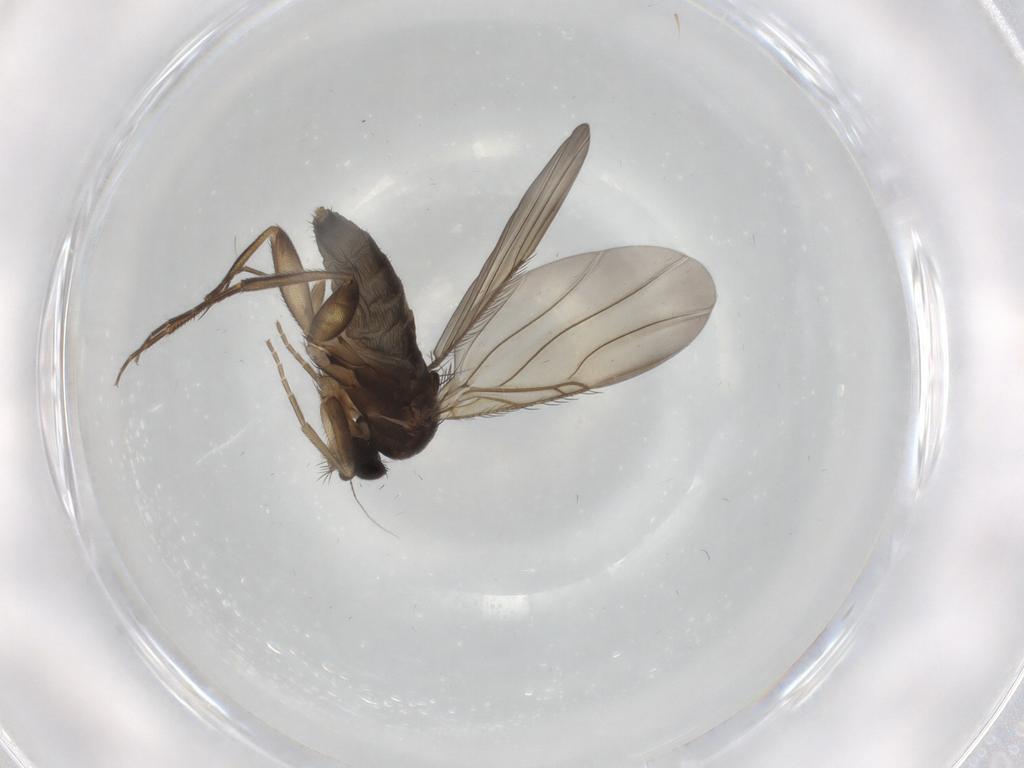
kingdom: Animalia
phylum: Arthropoda
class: Insecta
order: Diptera
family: Phoridae
